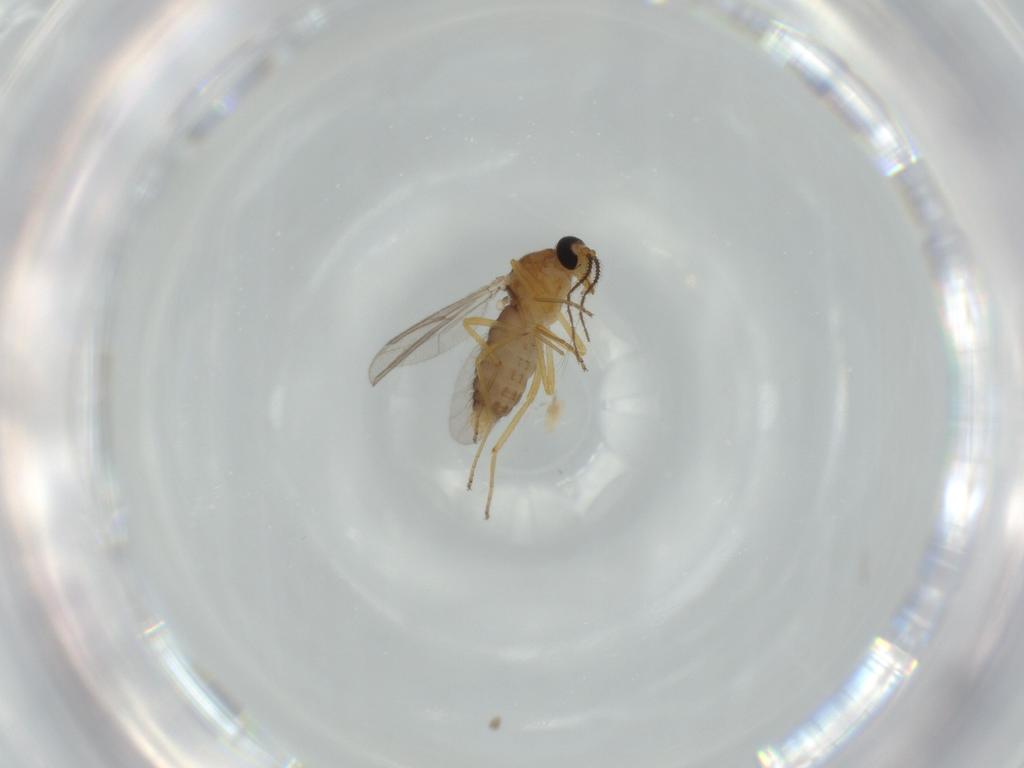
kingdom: Animalia
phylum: Arthropoda
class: Insecta
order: Diptera
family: Ceratopogonidae
